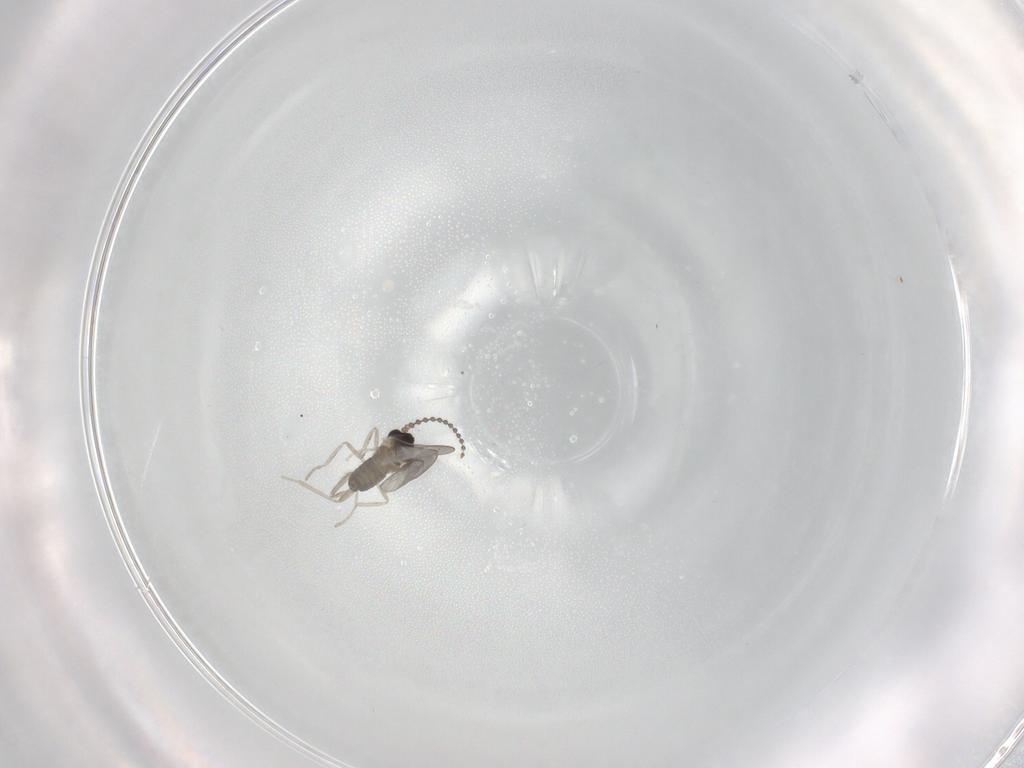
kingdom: Animalia
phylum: Arthropoda
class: Insecta
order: Diptera
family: Cecidomyiidae
